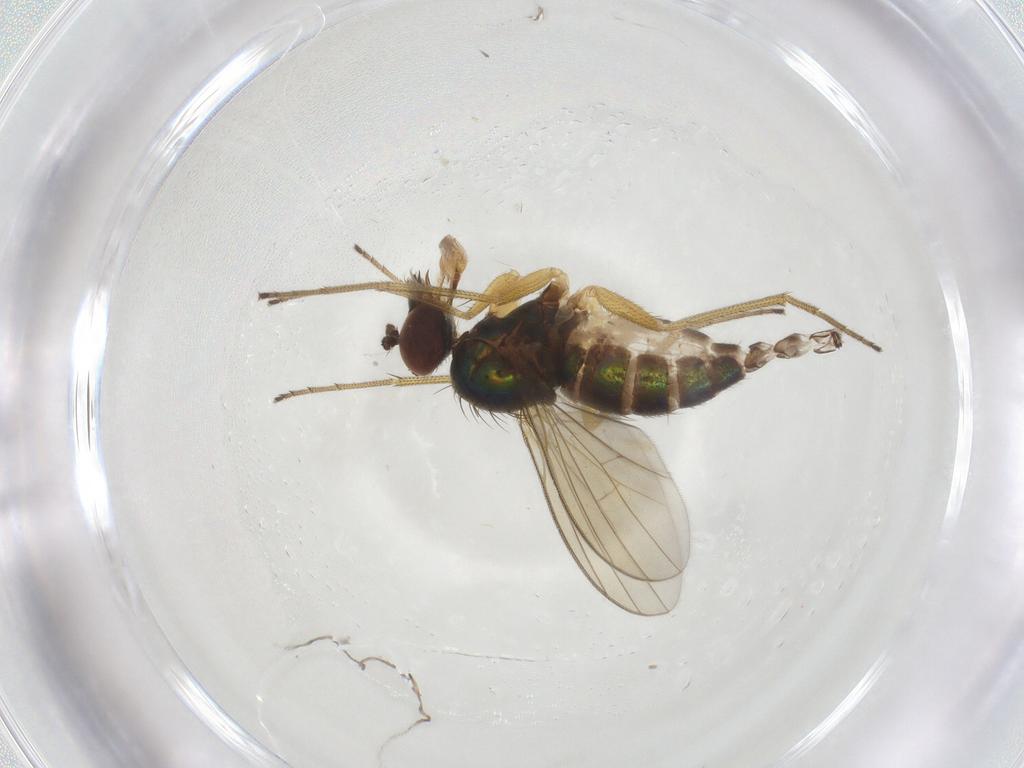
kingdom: Animalia
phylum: Arthropoda
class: Insecta
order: Diptera
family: Dolichopodidae
